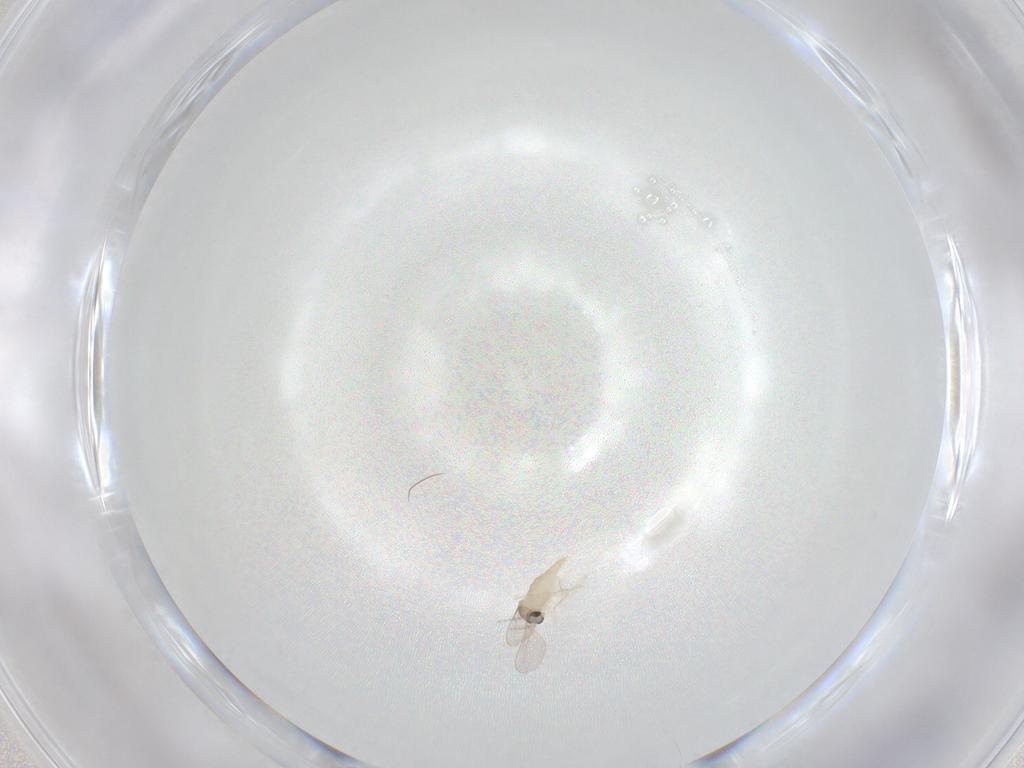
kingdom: Animalia
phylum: Arthropoda
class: Insecta
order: Diptera
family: Cecidomyiidae
